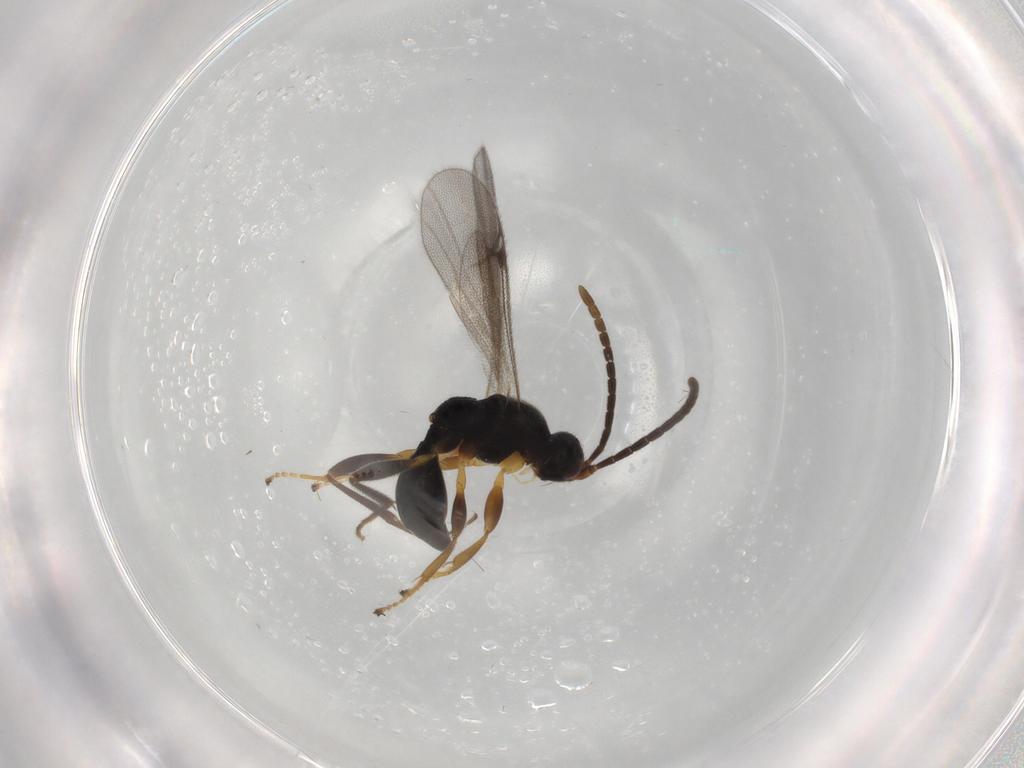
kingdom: Animalia
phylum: Arthropoda
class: Insecta
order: Hymenoptera
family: Proctotrupidae
